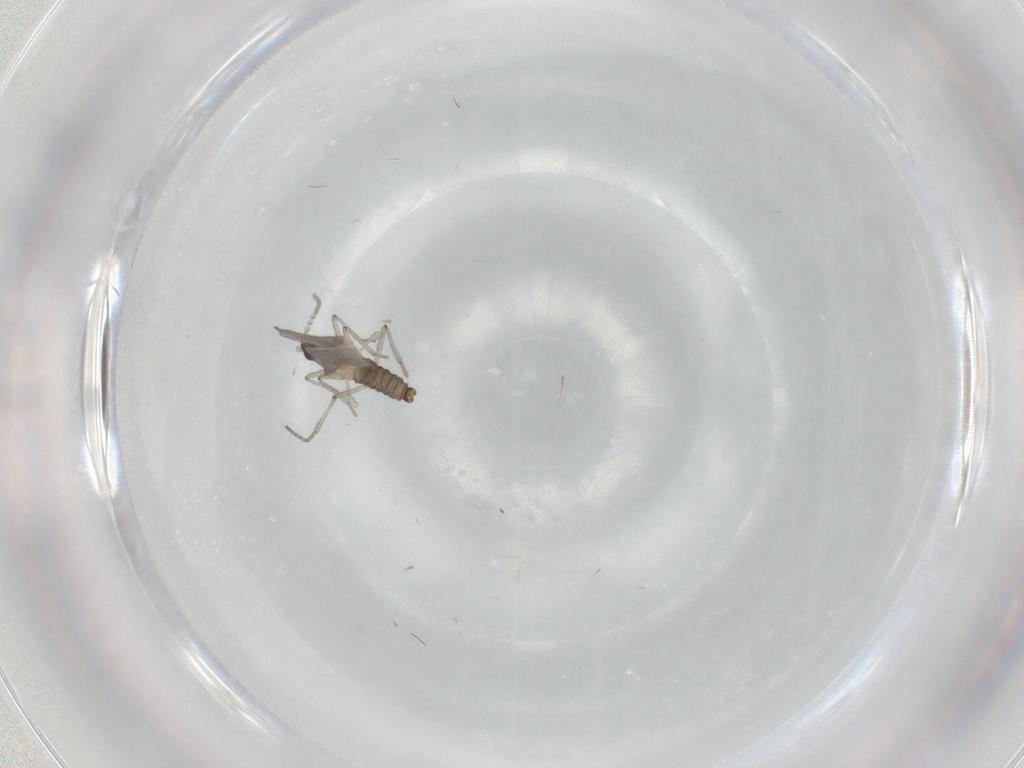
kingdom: Animalia
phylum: Arthropoda
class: Insecta
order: Diptera
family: Cecidomyiidae
